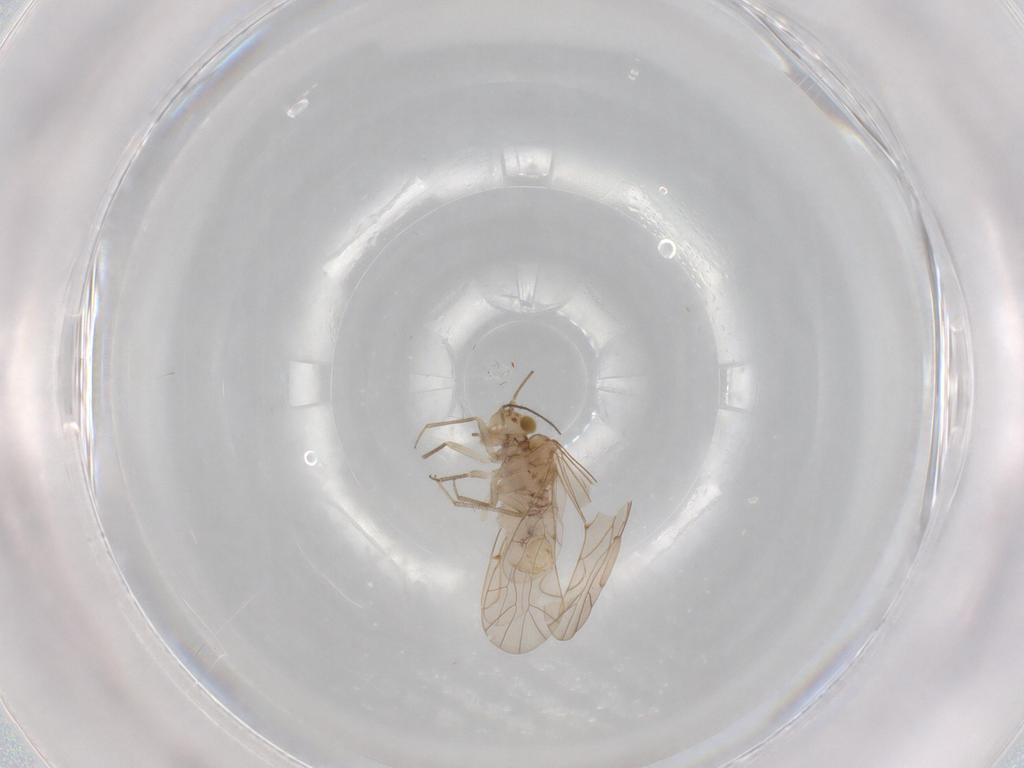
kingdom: Animalia
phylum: Arthropoda
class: Insecta
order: Psocodea
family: Lachesillidae
